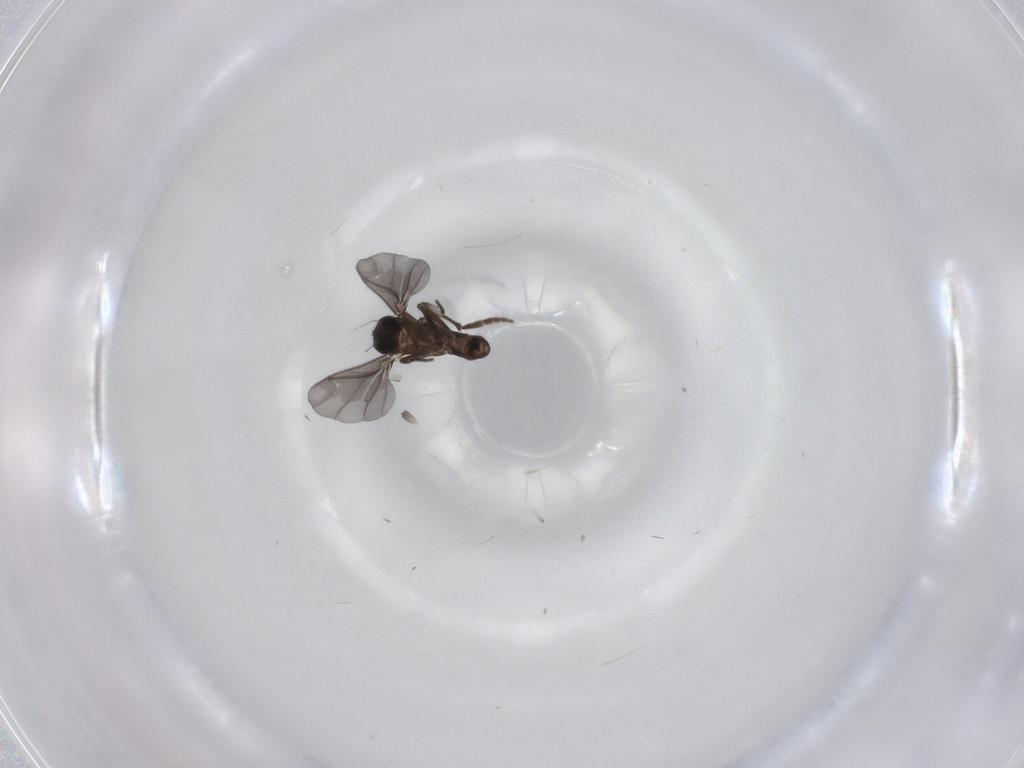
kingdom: Animalia
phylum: Arthropoda
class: Insecta
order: Diptera
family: Phoridae
